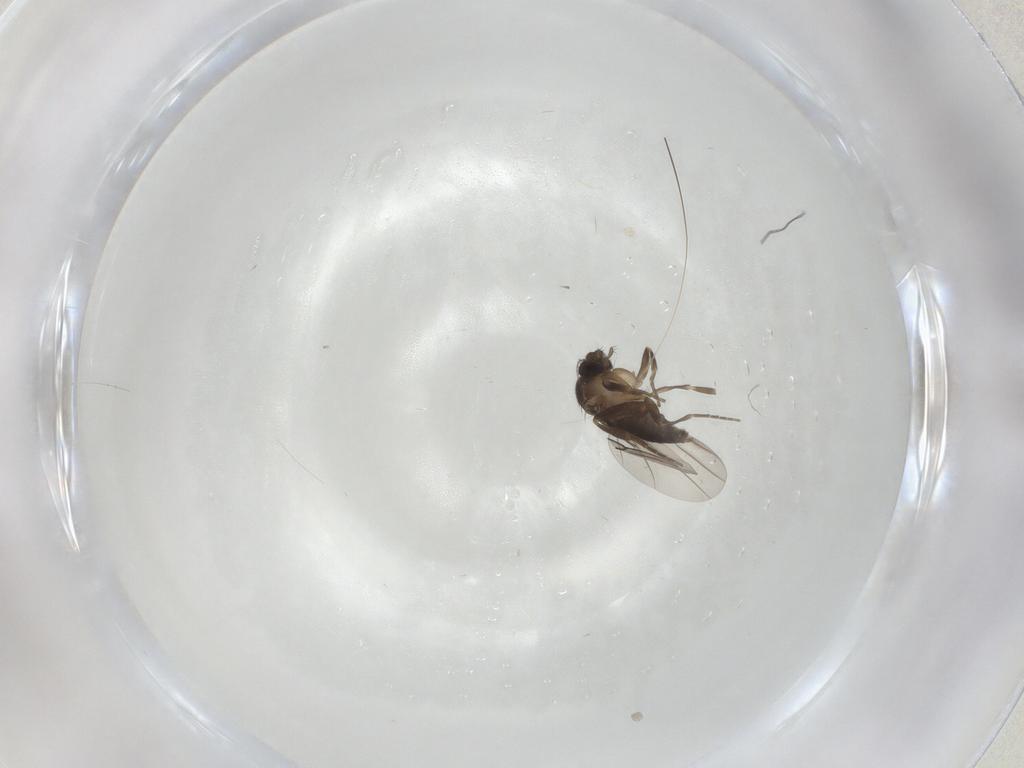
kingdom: Animalia
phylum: Arthropoda
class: Insecta
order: Diptera
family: Phoridae
